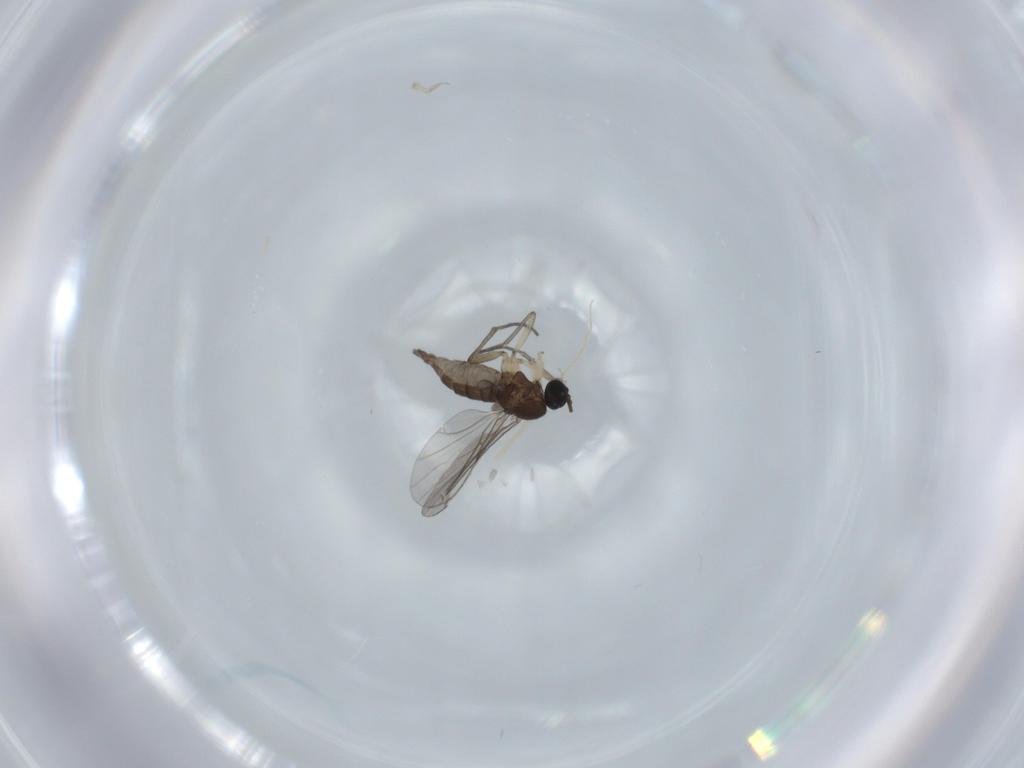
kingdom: Animalia
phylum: Arthropoda
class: Insecta
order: Diptera
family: Sciaridae
